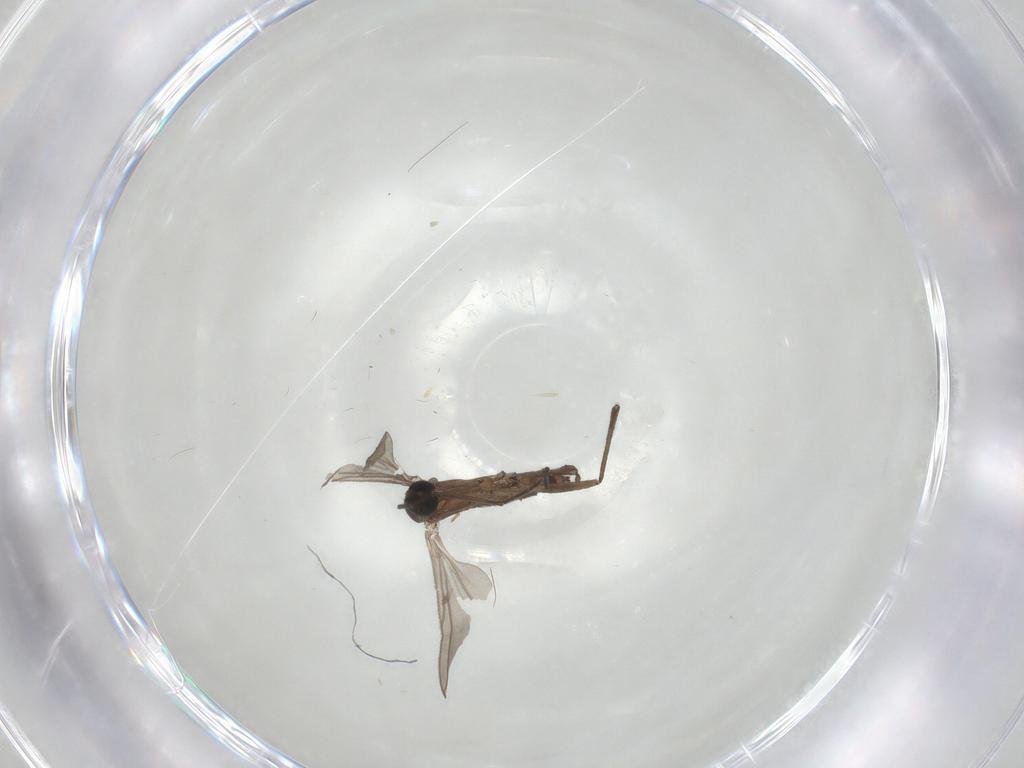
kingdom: Animalia
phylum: Arthropoda
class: Insecta
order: Diptera
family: Chironomidae
